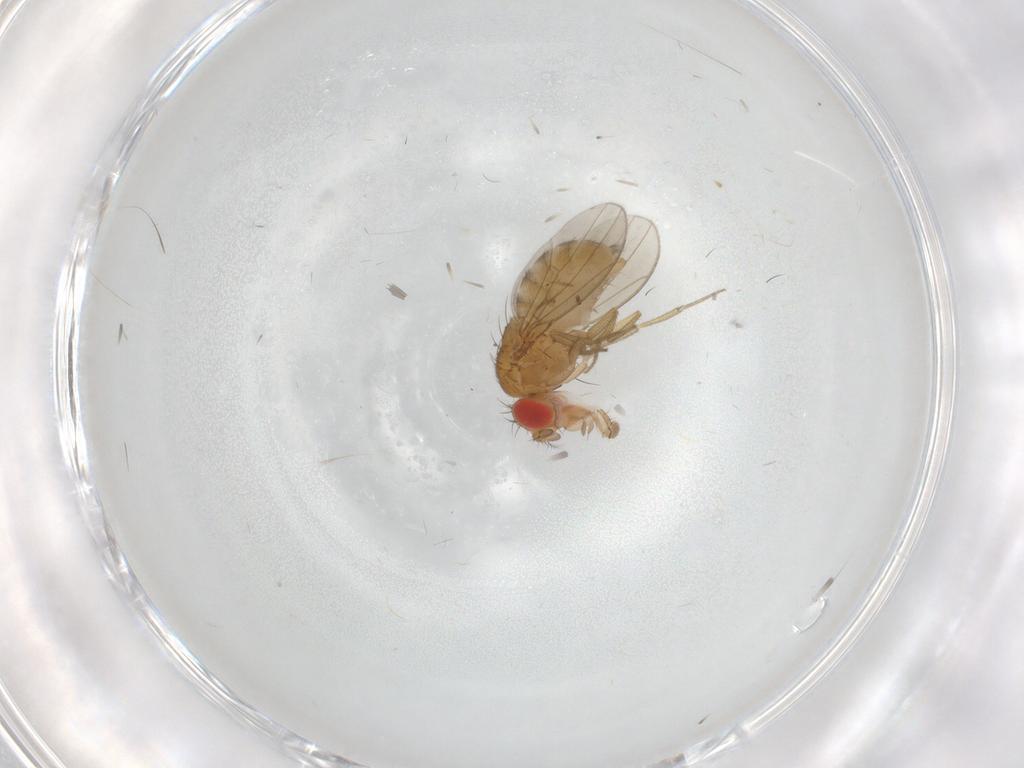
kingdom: Animalia
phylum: Arthropoda
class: Insecta
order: Diptera
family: Drosophilidae
